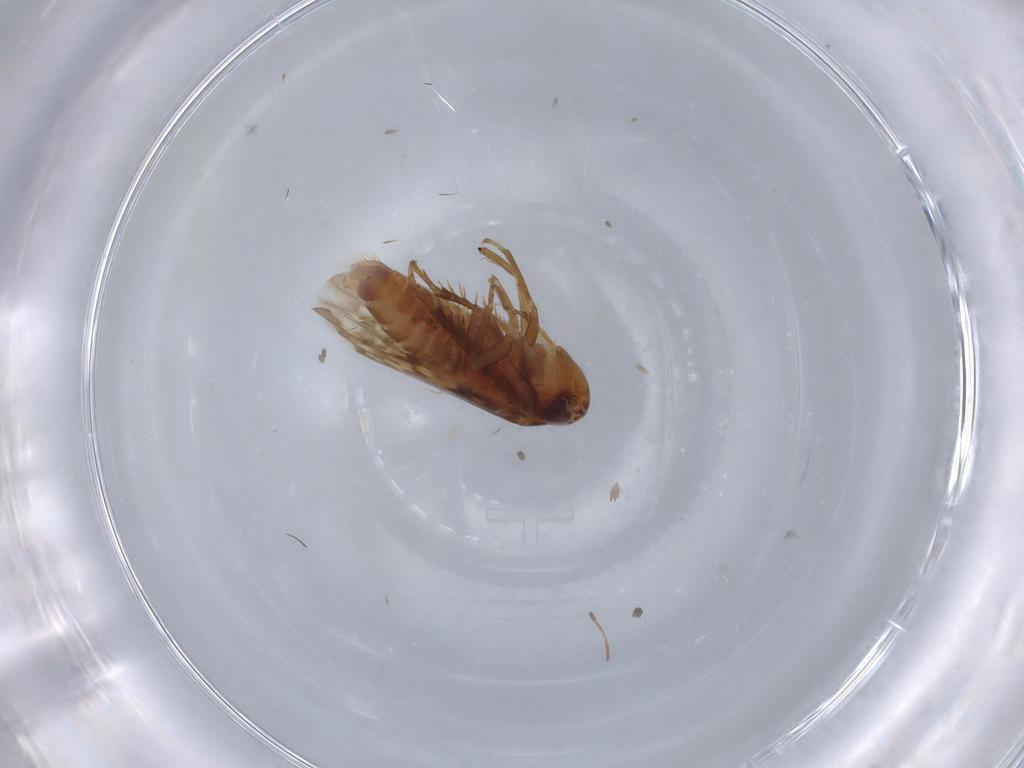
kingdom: Animalia
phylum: Arthropoda
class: Insecta
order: Hemiptera
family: Cicadellidae
